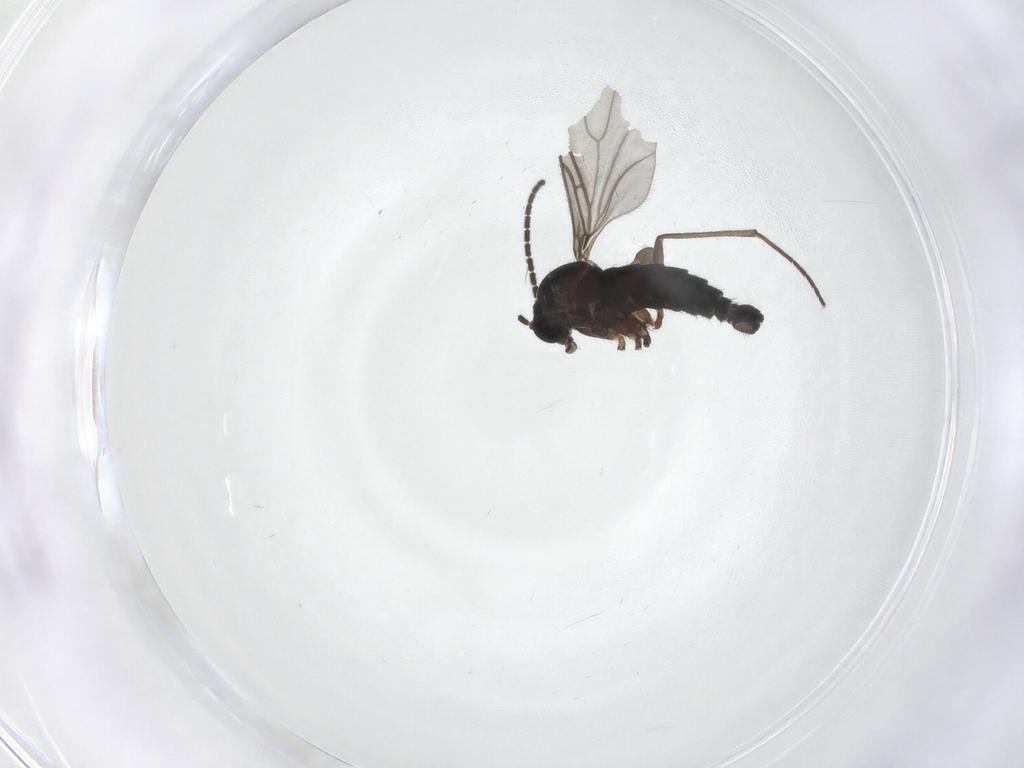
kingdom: Animalia
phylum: Arthropoda
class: Insecta
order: Diptera
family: Sciaridae
